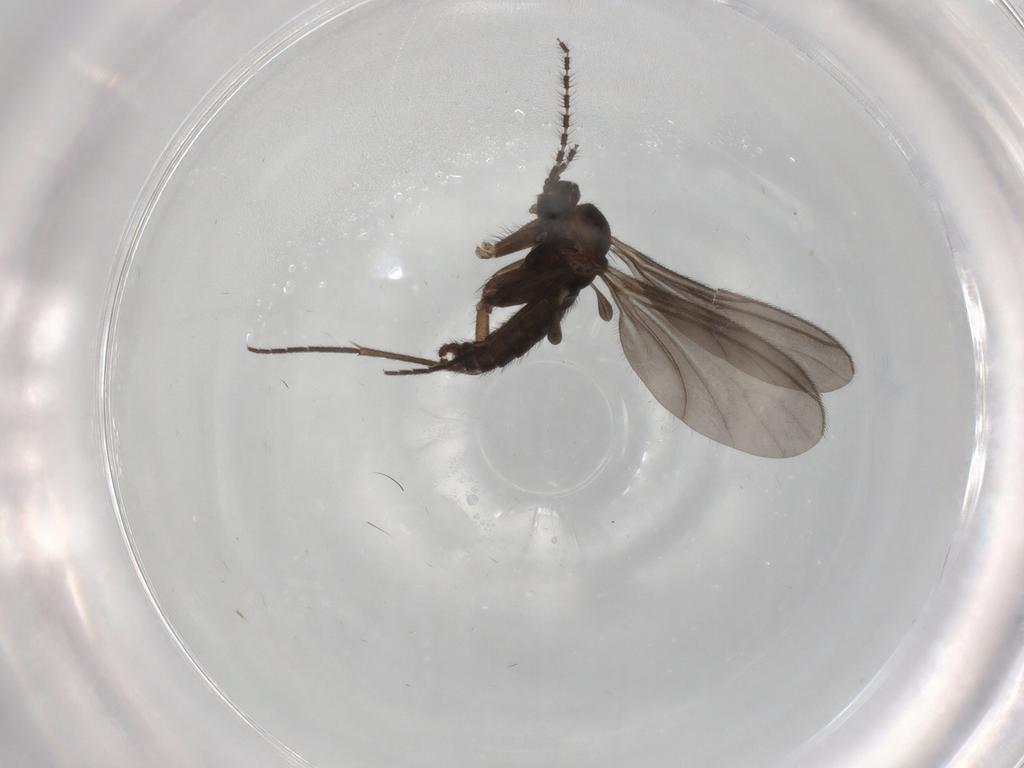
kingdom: Animalia
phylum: Arthropoda
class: Insecta
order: Diptera
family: Sciaridae
